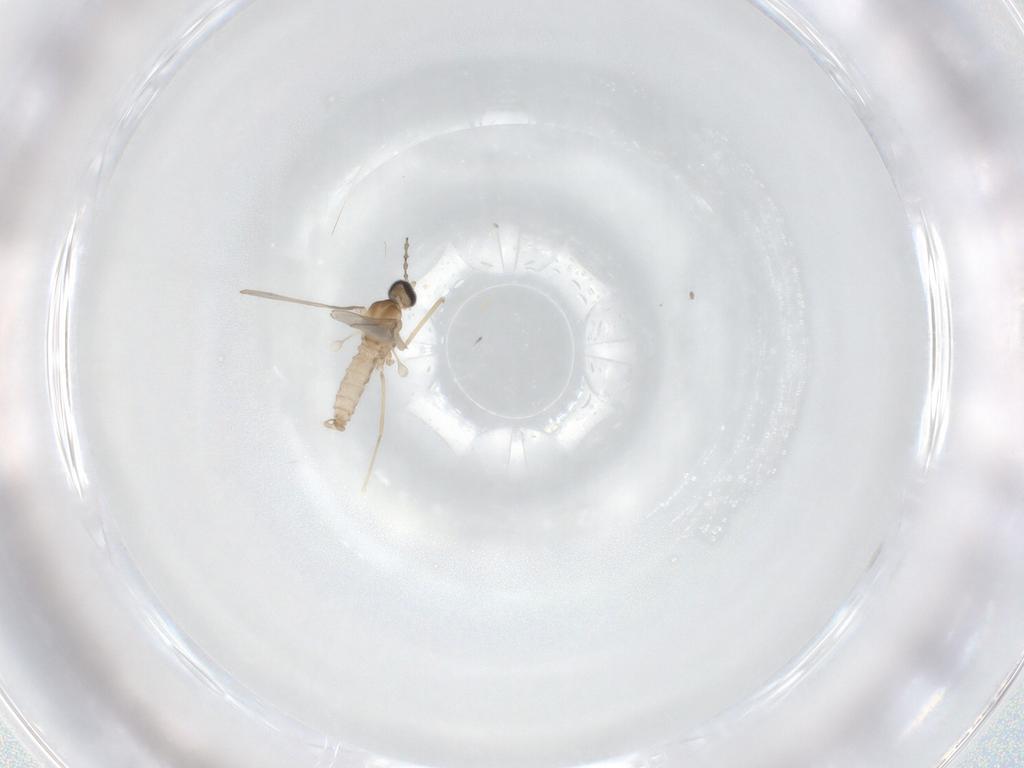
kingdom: Animalia
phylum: Arthropoda
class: Insecta
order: Diptera
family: Cecidomyiidae
